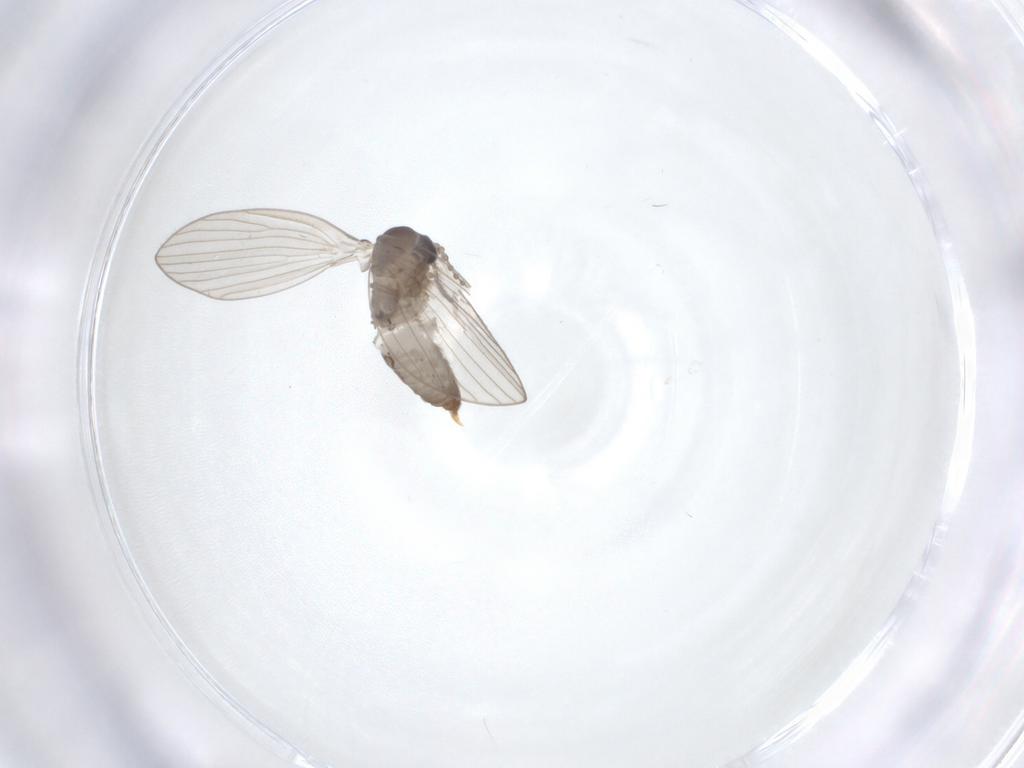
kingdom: Animalia
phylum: Arthropoda
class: Insecta
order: Diptera
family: Psychodidae
